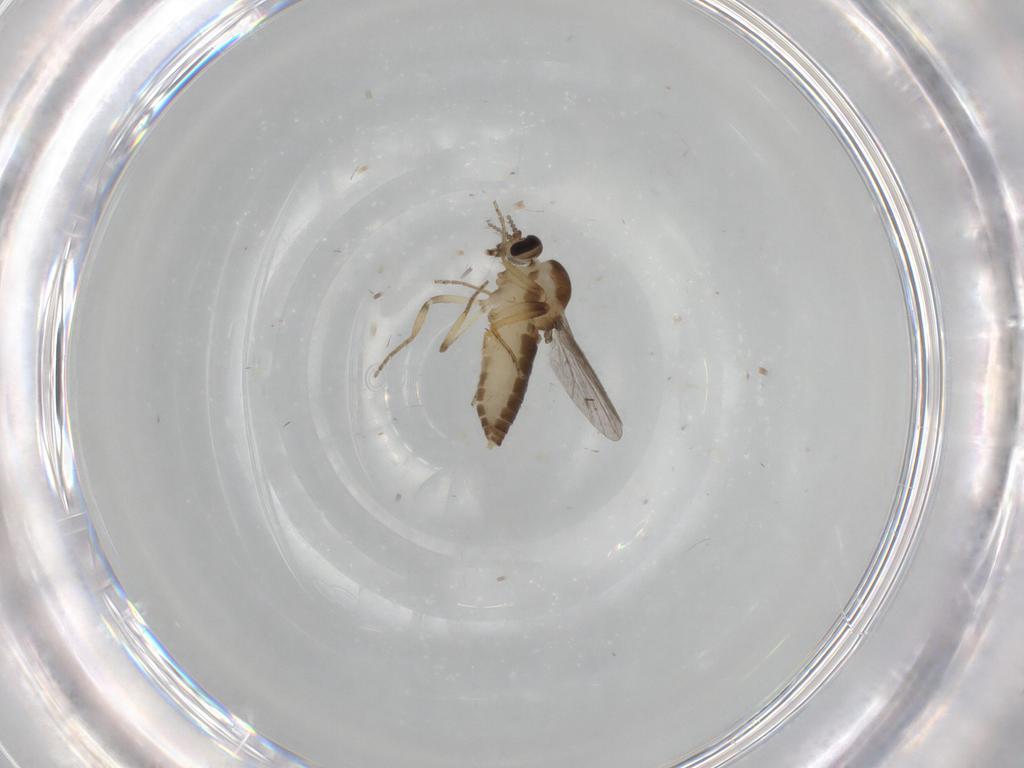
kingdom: Animalia
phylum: Arthropoda
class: Insecta
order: Diptera
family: Ceratopogonidae
